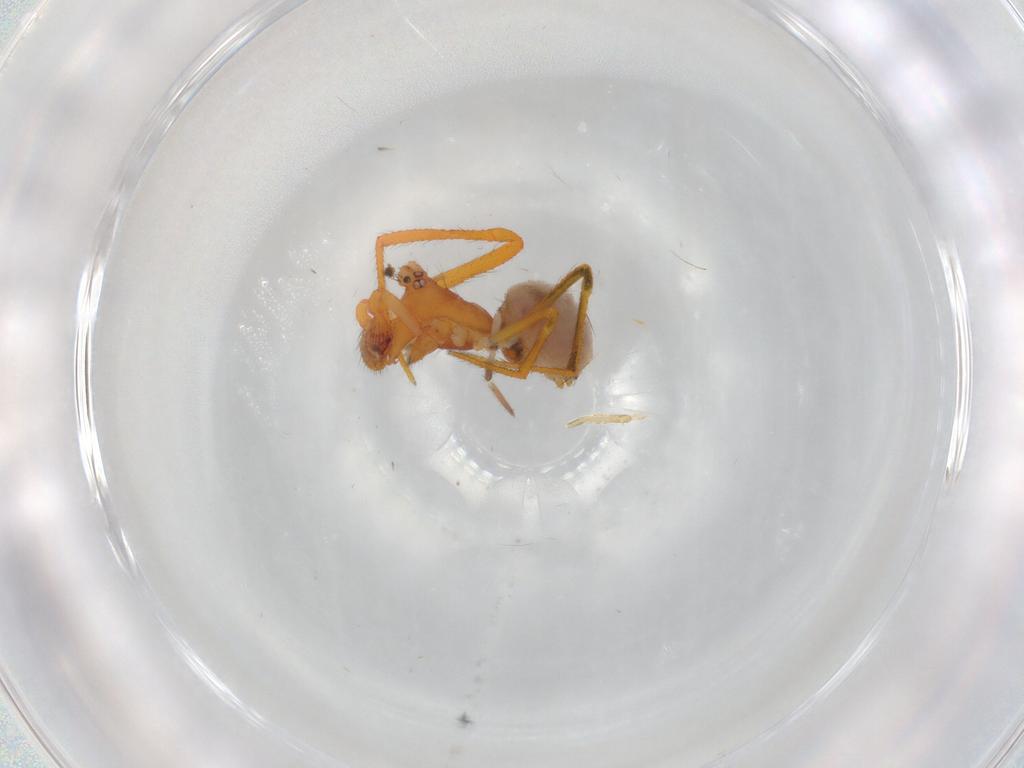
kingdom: Animalia
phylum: Arthropoda
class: Arachnida
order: Araneae
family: Theridiidae
